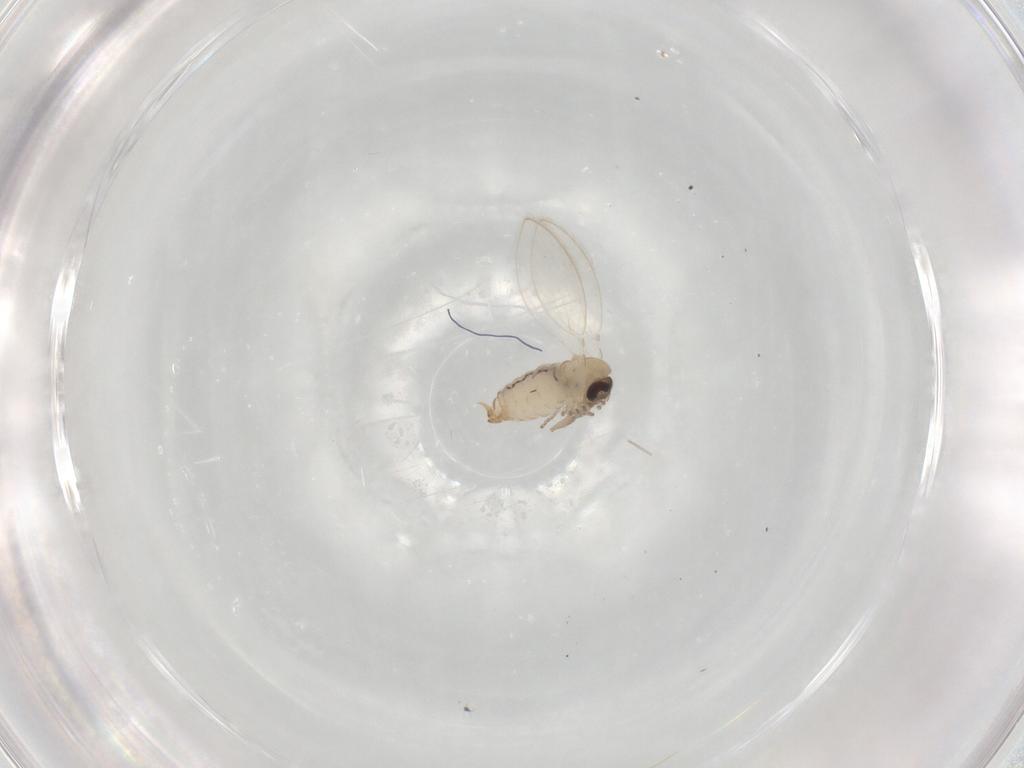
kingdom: Animalia
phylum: Arthropoda
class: Insecta
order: Diptera
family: Psychodidae
